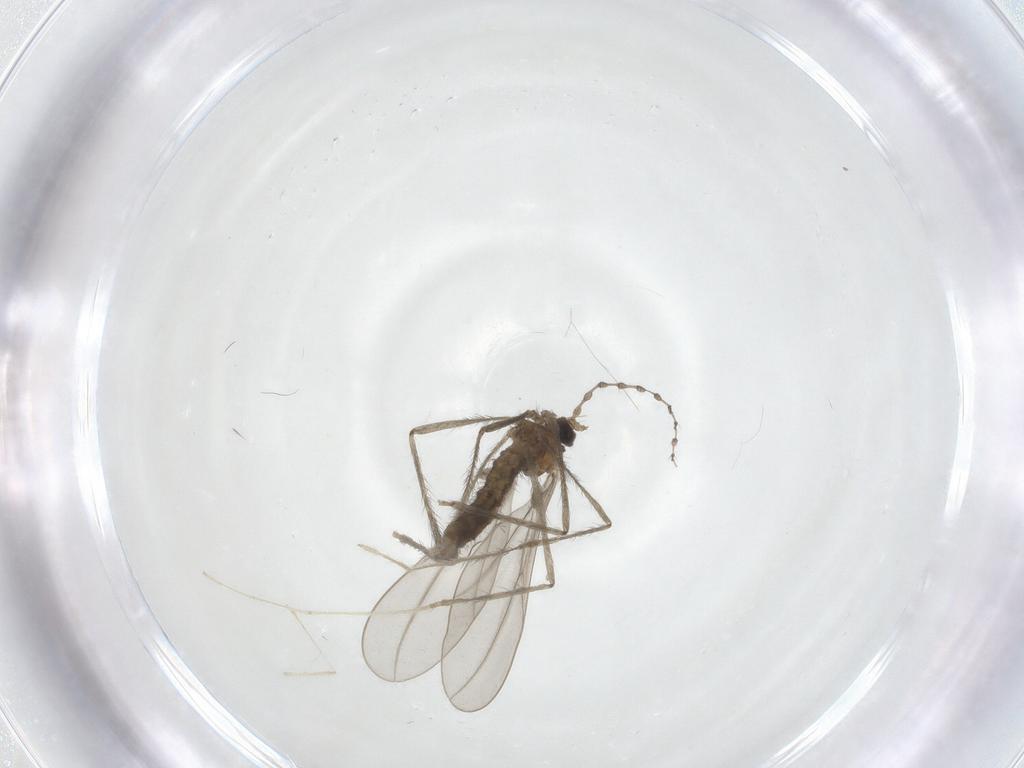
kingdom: Animalia
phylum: Arthropoda
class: Insecta
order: Diptera
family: Cecidomyiidae
